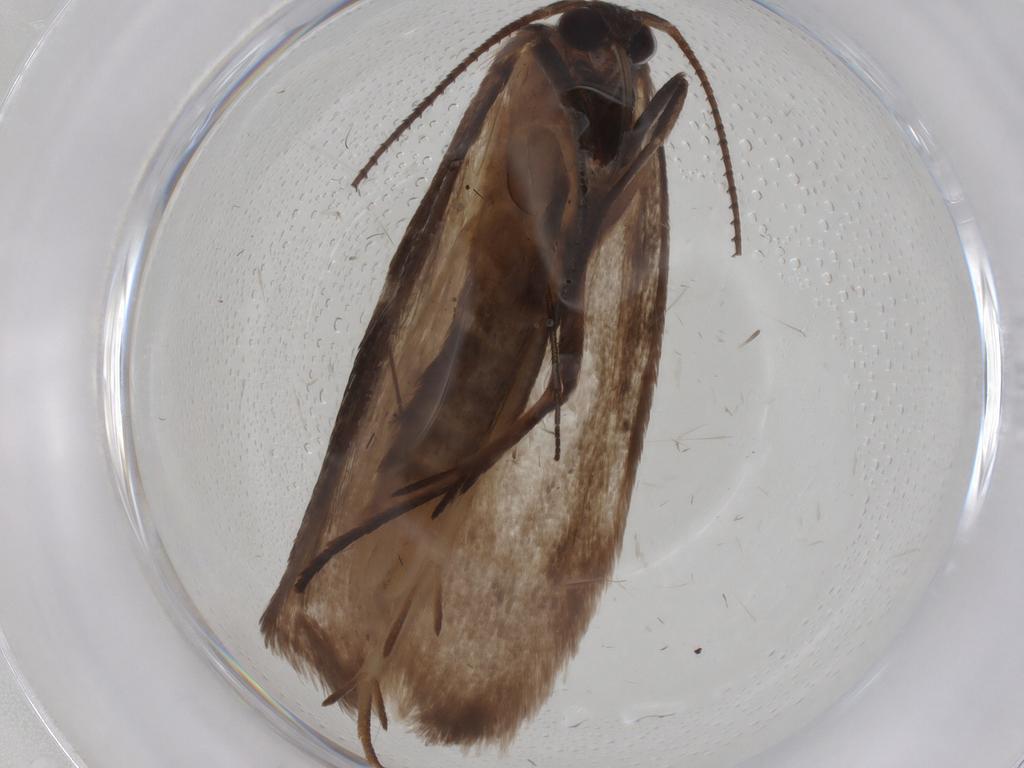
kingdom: Animalia
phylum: Arthropoda
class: Insecta
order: Lepidoptera
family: Roeslerstammiidae
